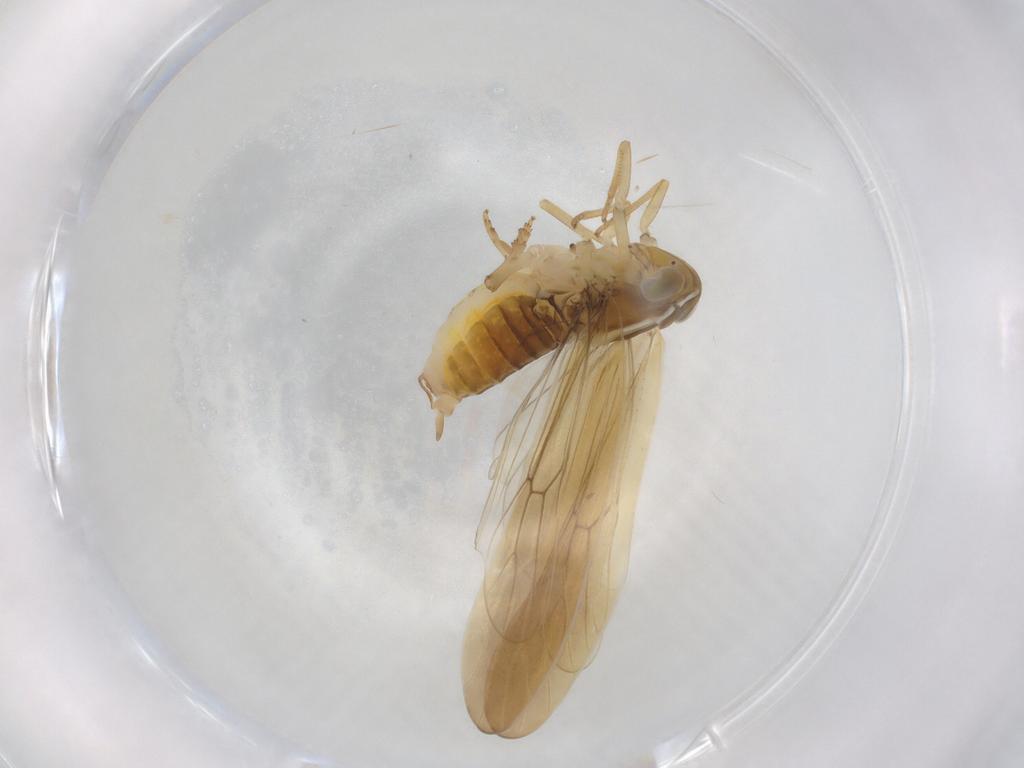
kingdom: Animalia
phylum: Arthropoda
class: Insecta
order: Hemiptera
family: Delphacidae
